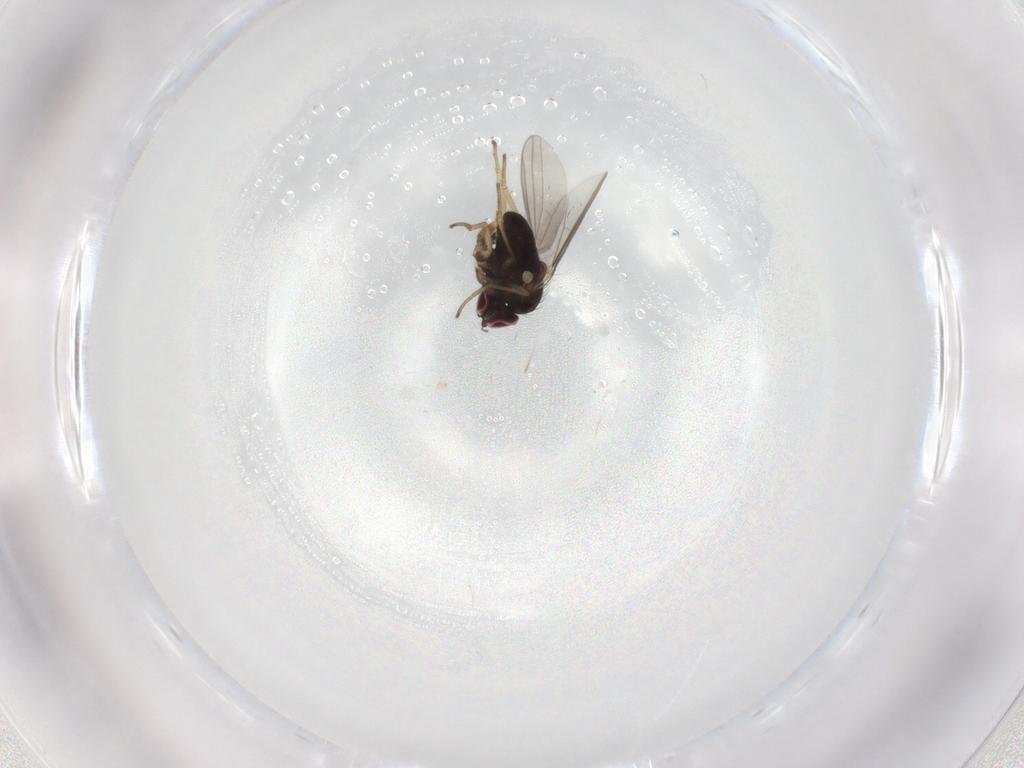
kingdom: Animalia
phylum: Arthropoda
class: Insecta
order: Diptera
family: Dolichopodidae
